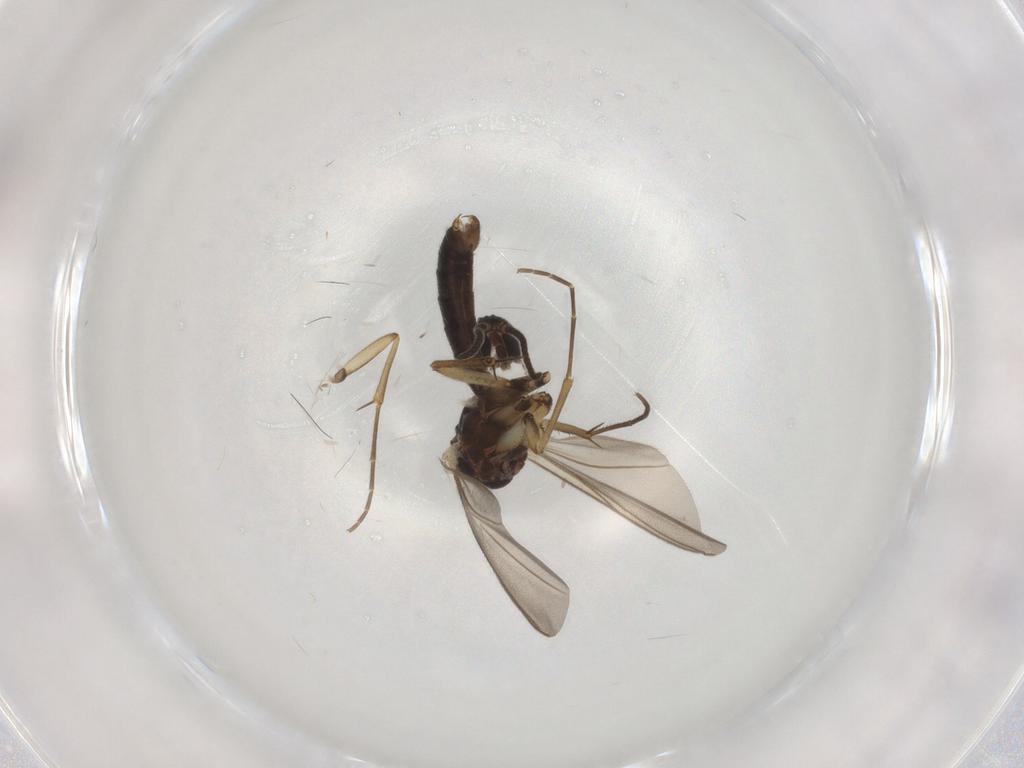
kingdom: Animalia
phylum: Arthropoda
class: Insecta
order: Diptera
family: Mycetophilidae
